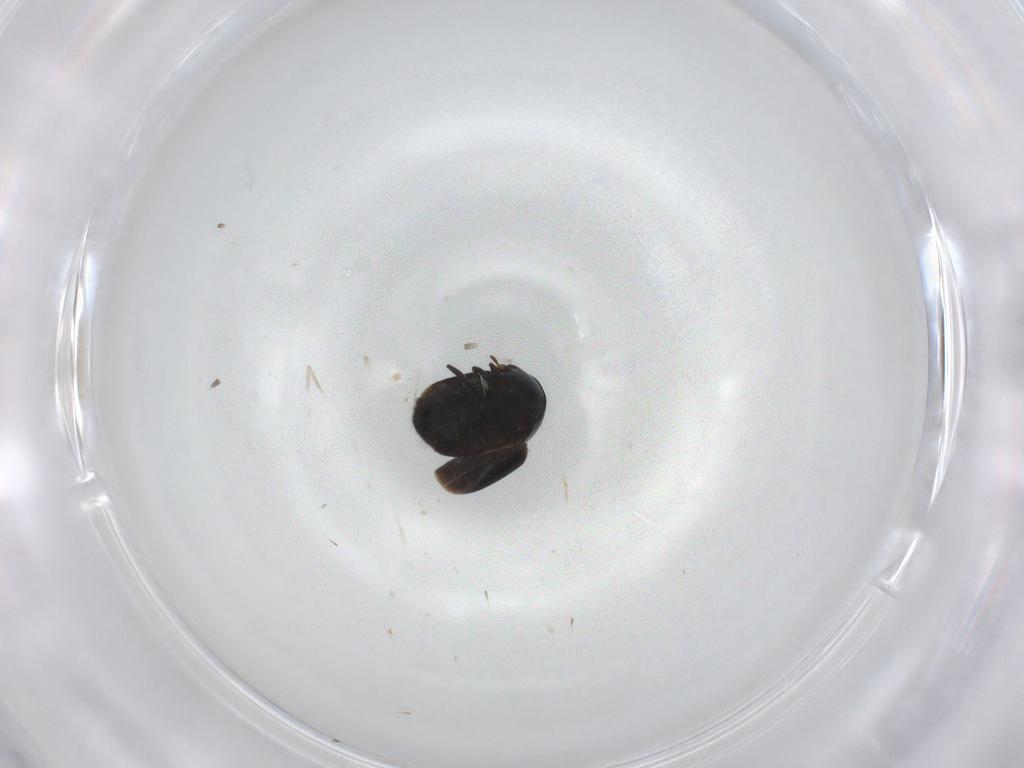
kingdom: Animalia
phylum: Arthropoda
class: Insecta
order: Coleoptera
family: Cybocephalidae
